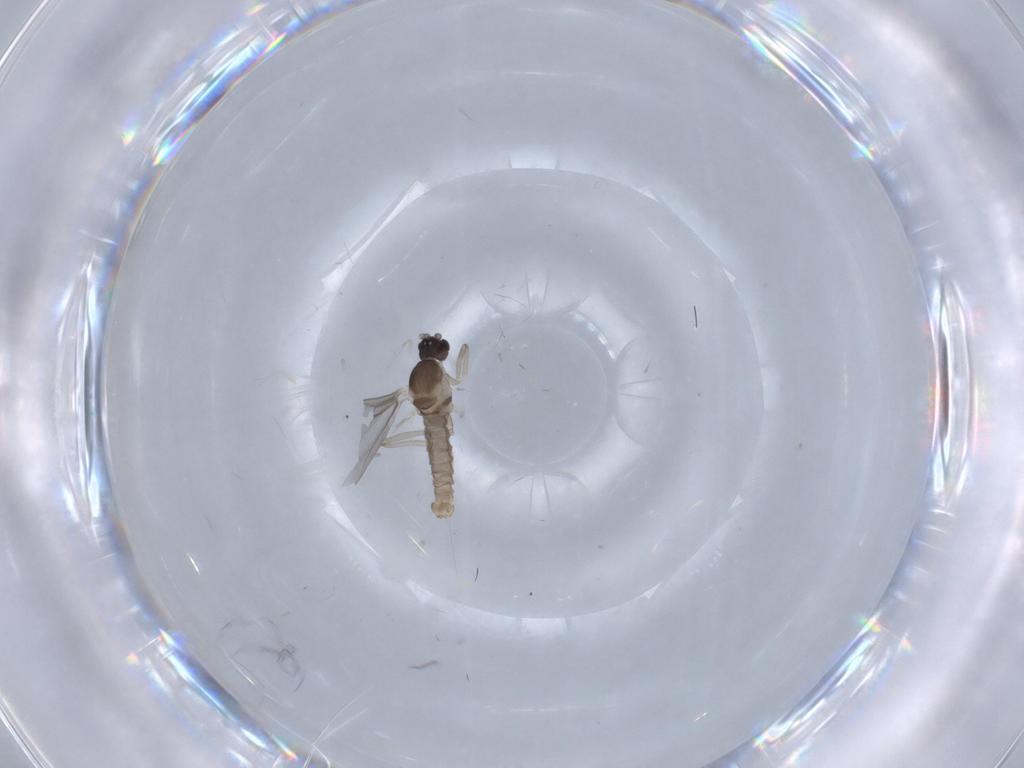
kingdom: Animalia
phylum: Arthropoda
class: Insecta
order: Diptera
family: Cecidomyiidae
